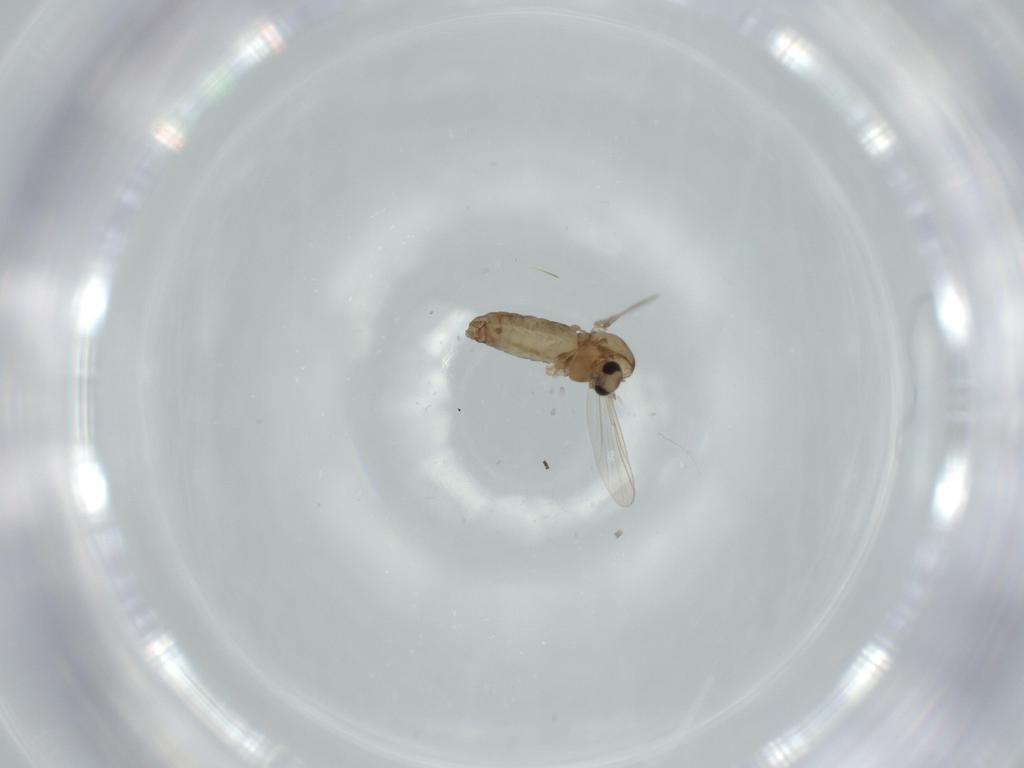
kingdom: Animalia
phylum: Arthropoda
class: Insecta
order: Diptera
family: Chironomidae
